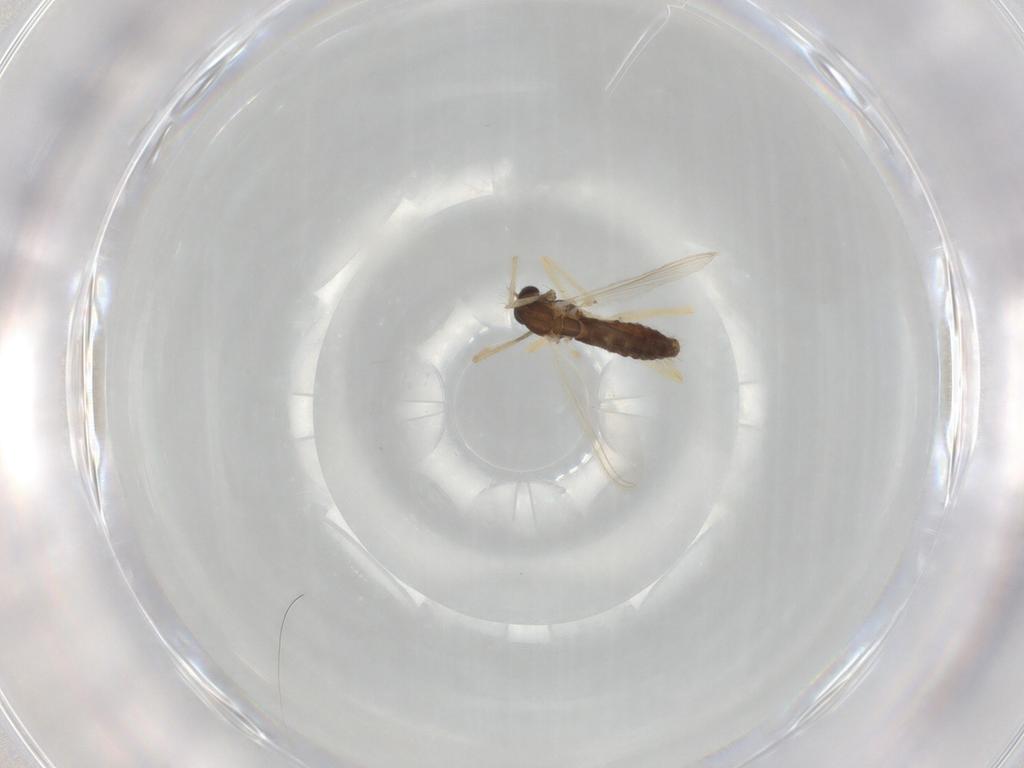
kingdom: Animalia
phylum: Arthropoda
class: Insecta
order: Diptera
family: Chironomidae
